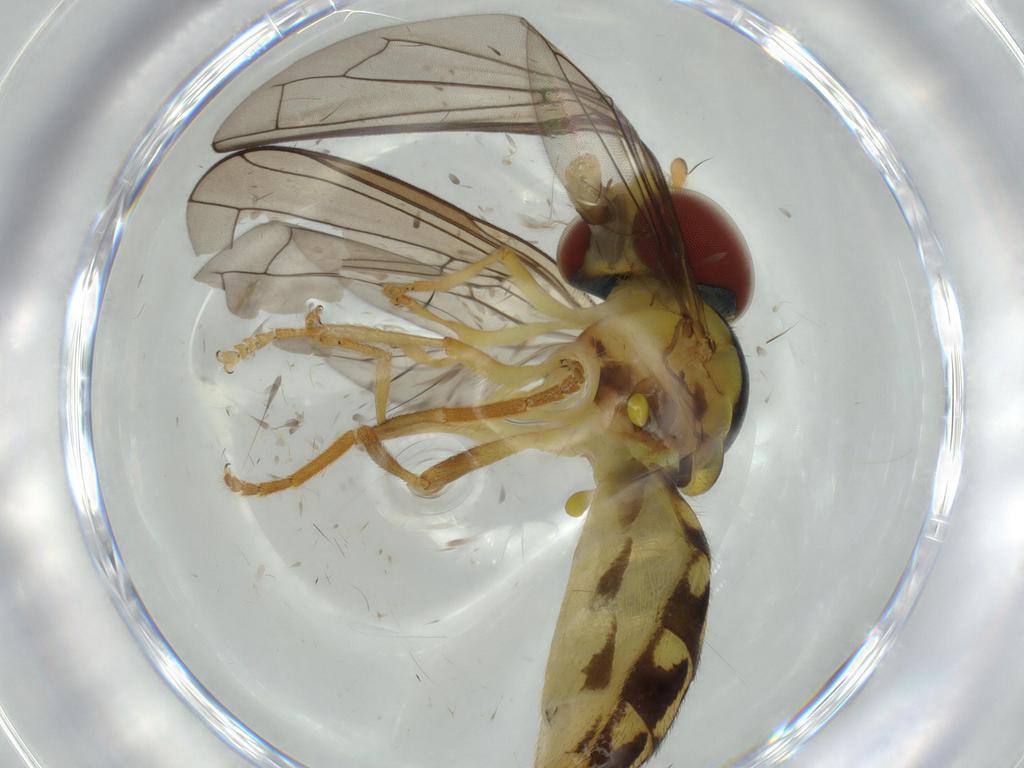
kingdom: Animalia
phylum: Arthropoda
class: Insecta
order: Diptera
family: Ceratopogonidae
